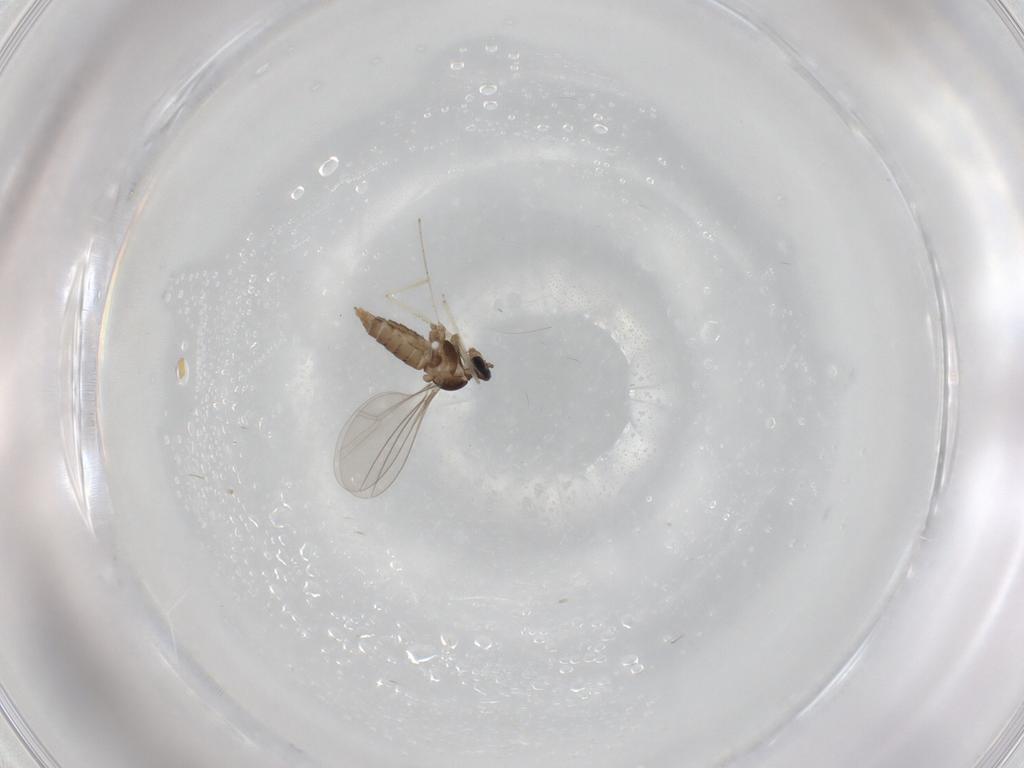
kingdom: Animalia
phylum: Arthropoda
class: Insecta
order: Diptera
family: Cecidomyiidae
